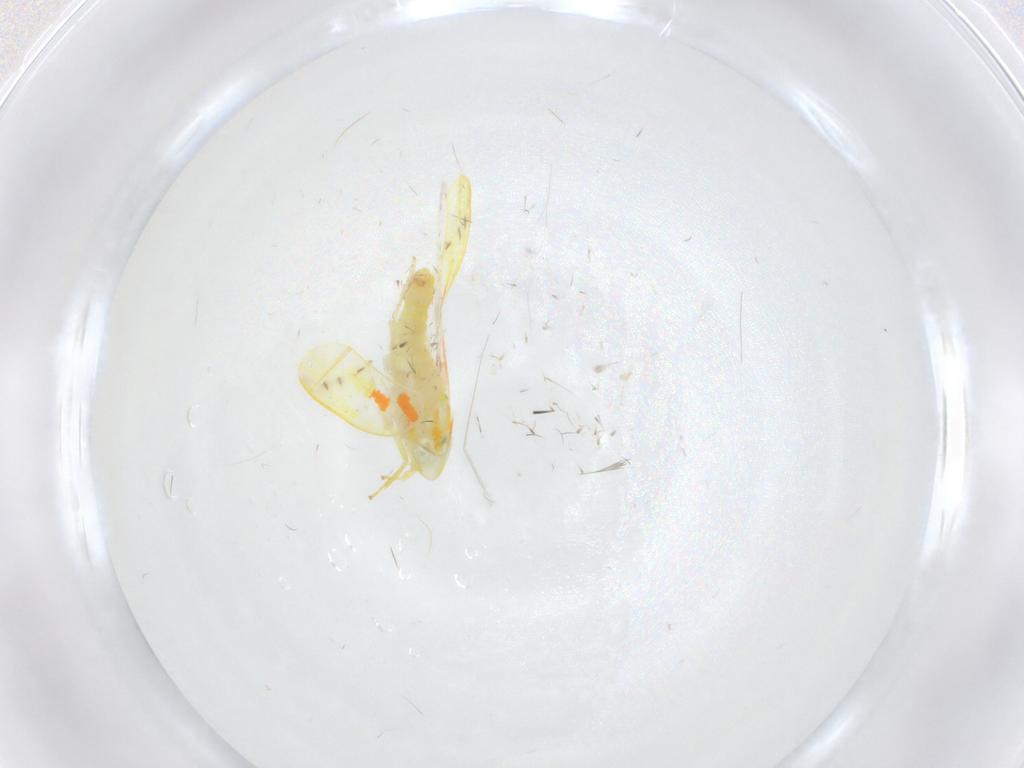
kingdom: Animalia
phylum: Arthropoda
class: Insecta
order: Hemiptera
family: Cicadellidae
